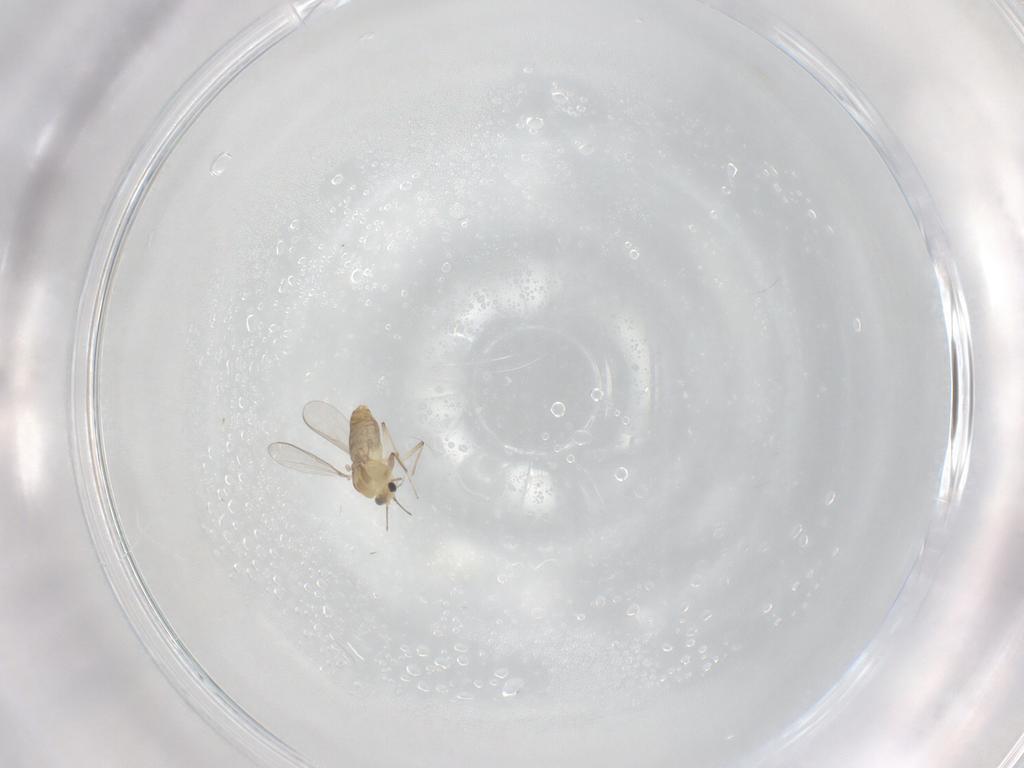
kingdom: Animalia
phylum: Arthropoda
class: Insecta
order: Diptera
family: Chironomidae
